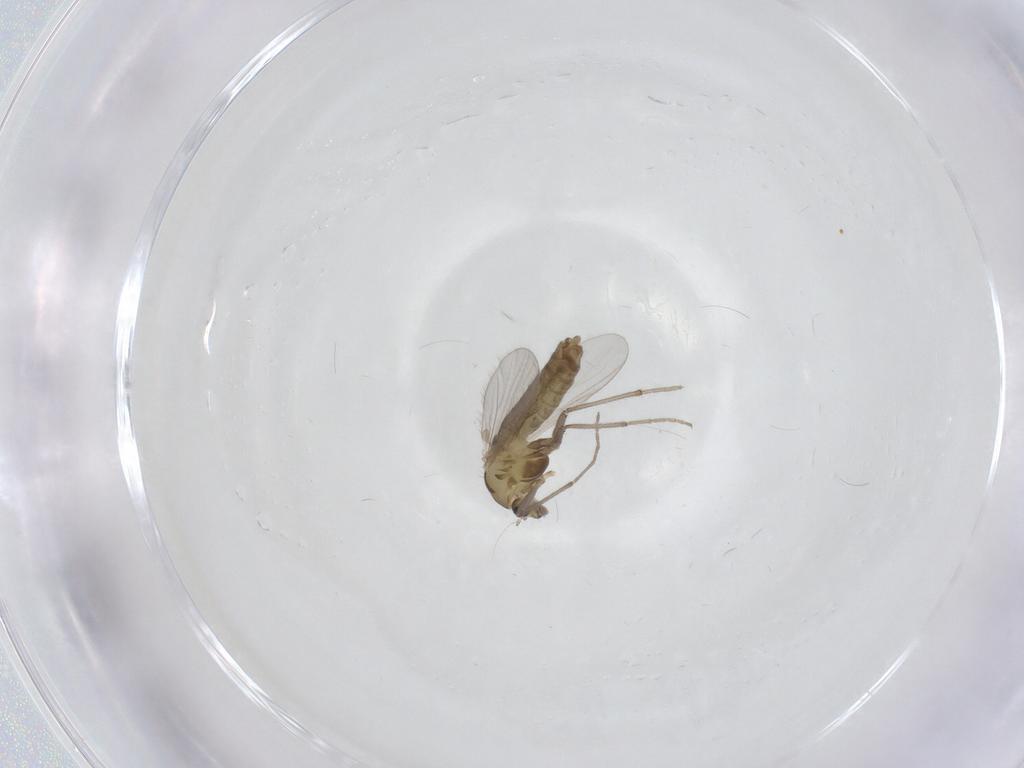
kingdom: Animalia
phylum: Arthropoda
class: Insecta
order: Diptera
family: Chironomidae
